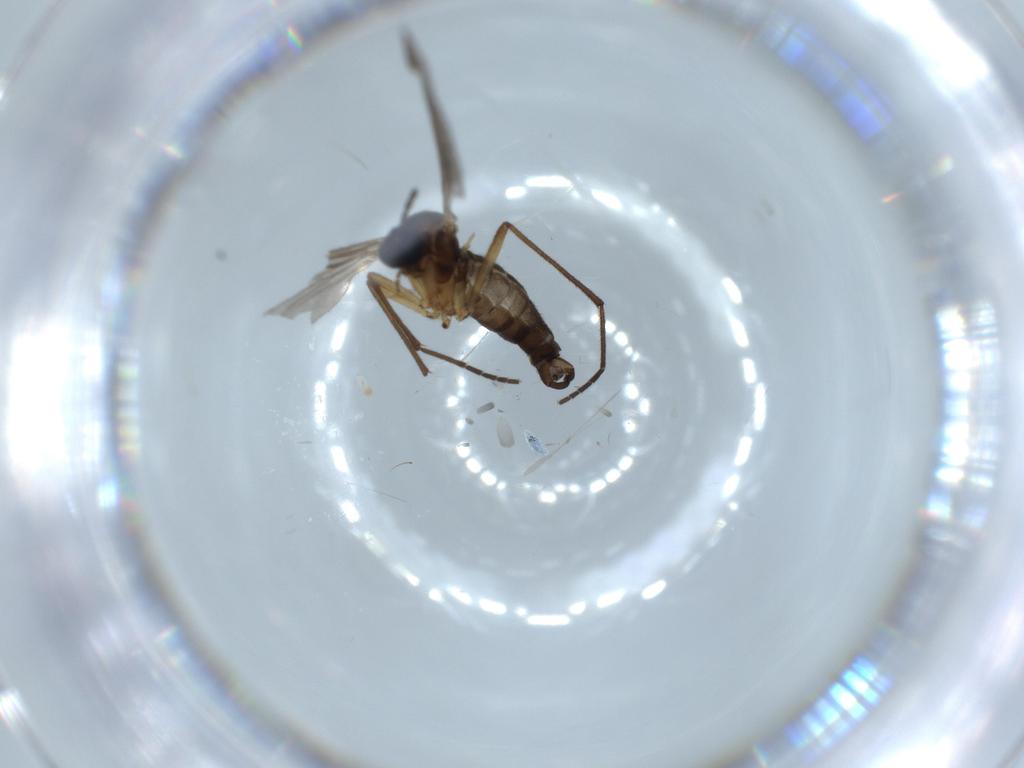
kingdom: Animalia
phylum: Arthropoda
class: Insecta
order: Diptera
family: Sciaridae
